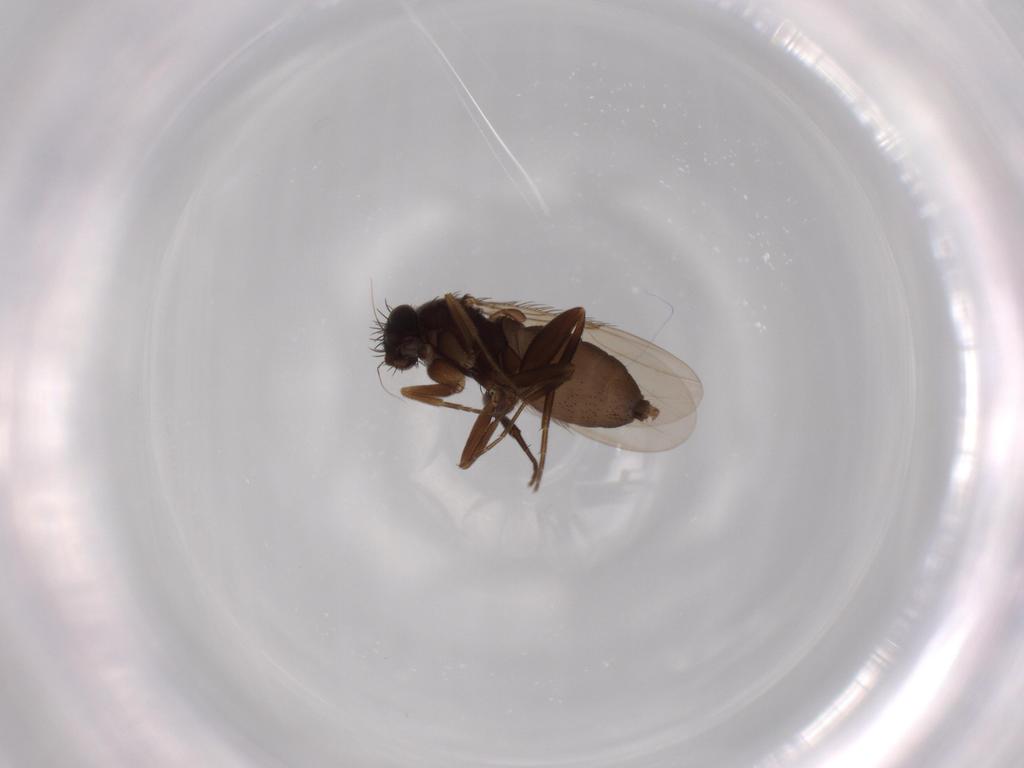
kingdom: Animalia
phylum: Arthropoda
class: Insecta
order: Diptera
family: Phoridae
